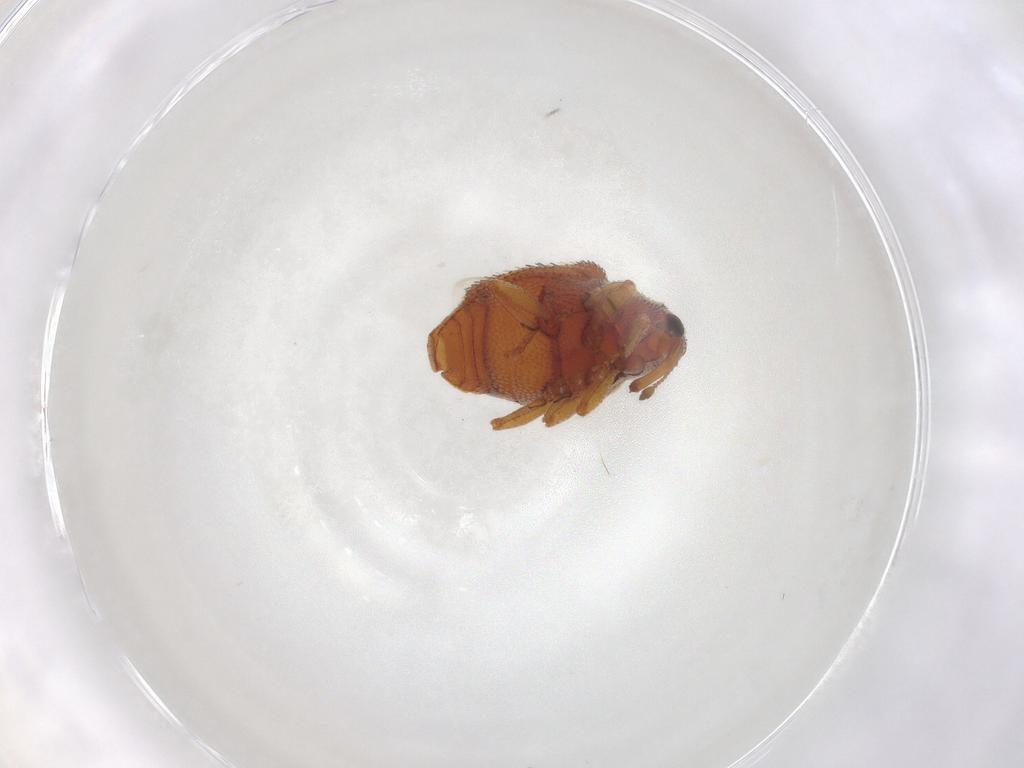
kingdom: Animalia
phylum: Arthropoda
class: Insecta
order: Coleoptera
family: Curculionidae
